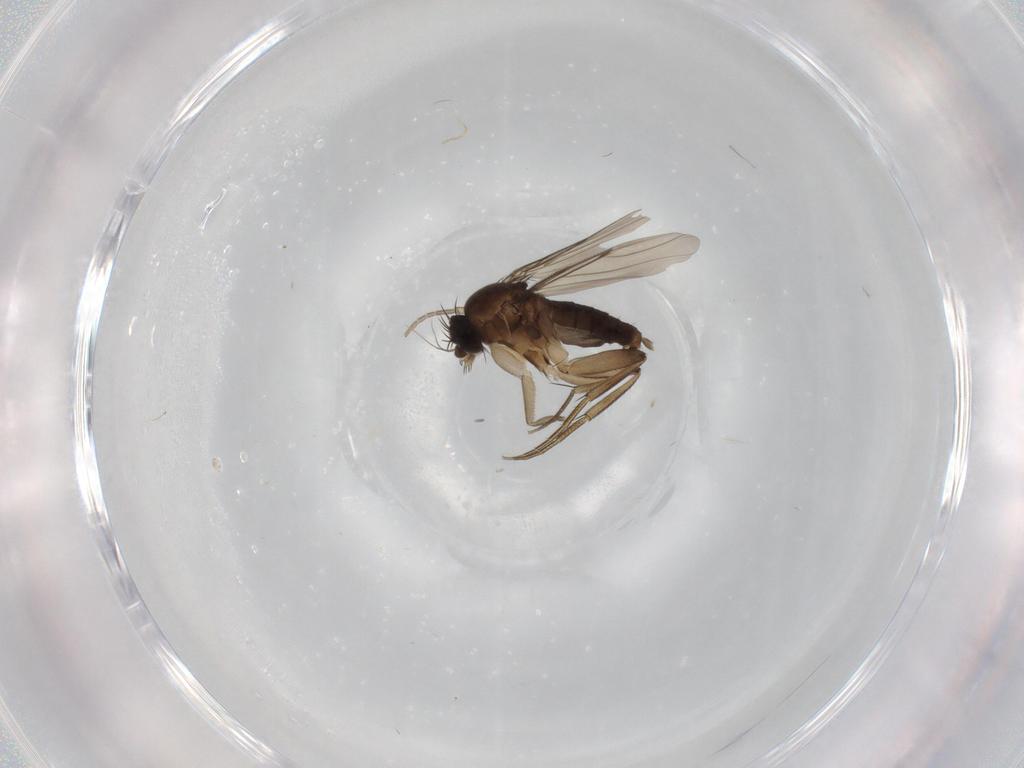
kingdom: Animalia
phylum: Arthropoda
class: Insecta
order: Diptera
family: Phoridae
